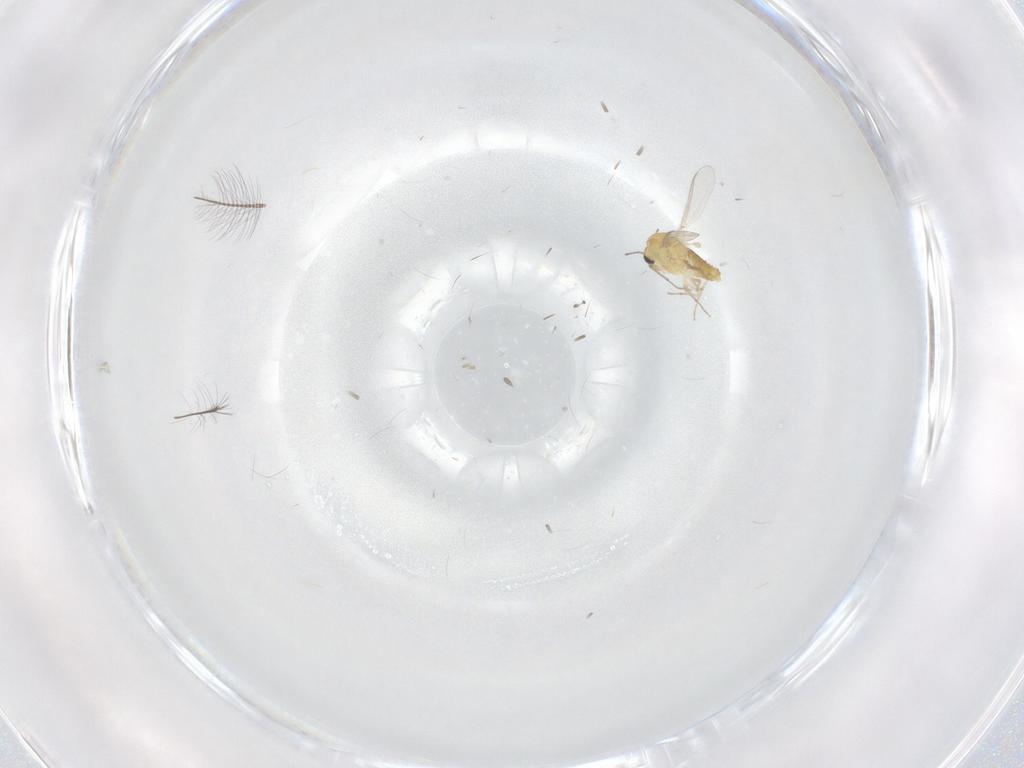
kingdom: Animalia
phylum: Arthropoda
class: Insecta
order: Diptera
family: Chironomidae
